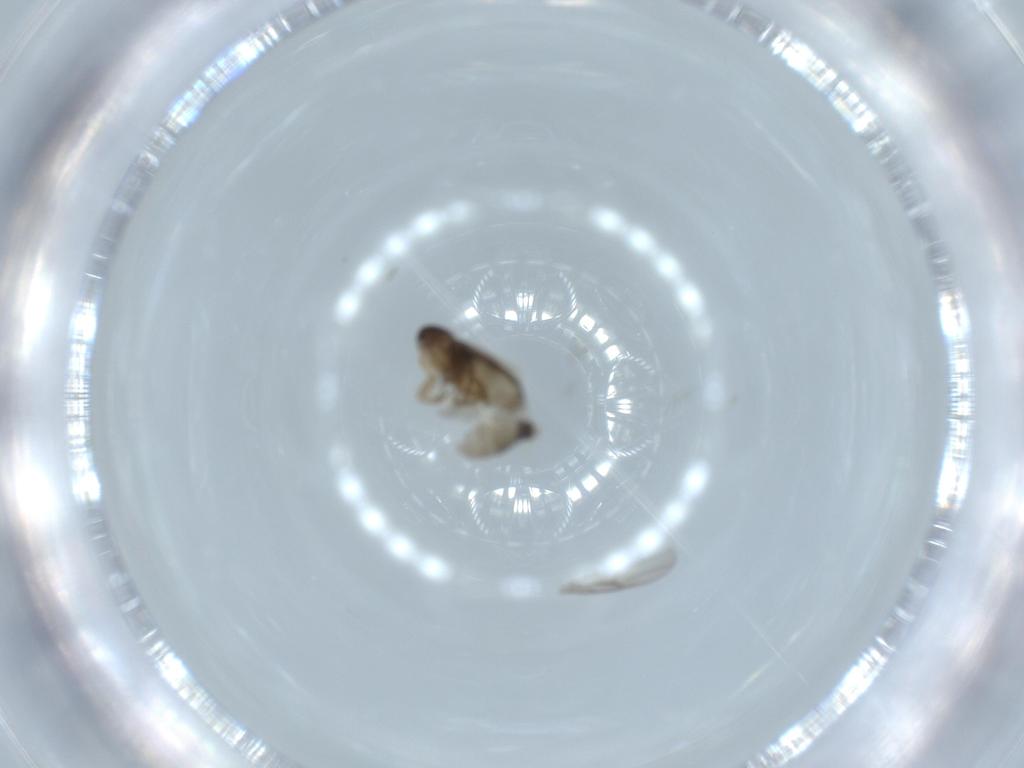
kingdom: Animalia
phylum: Arthropoda
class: Insecta
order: Diptera
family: Phoridae
